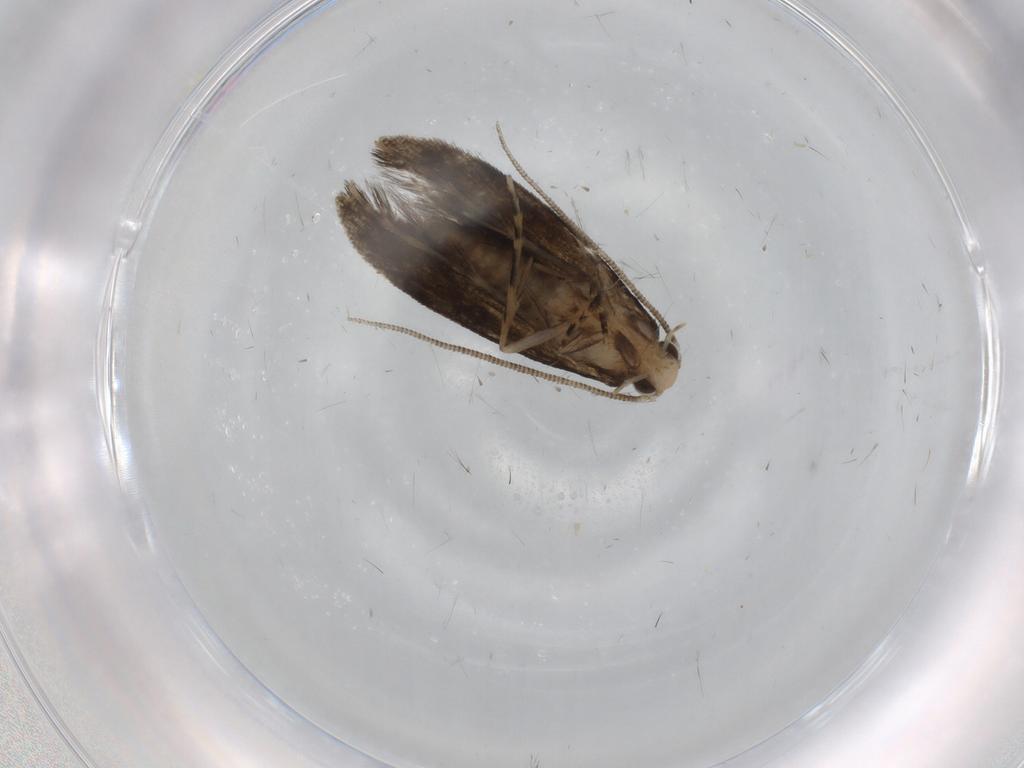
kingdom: Animalia
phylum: Arthropoda
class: Insecta
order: Lepidoptera
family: Meessiidae
